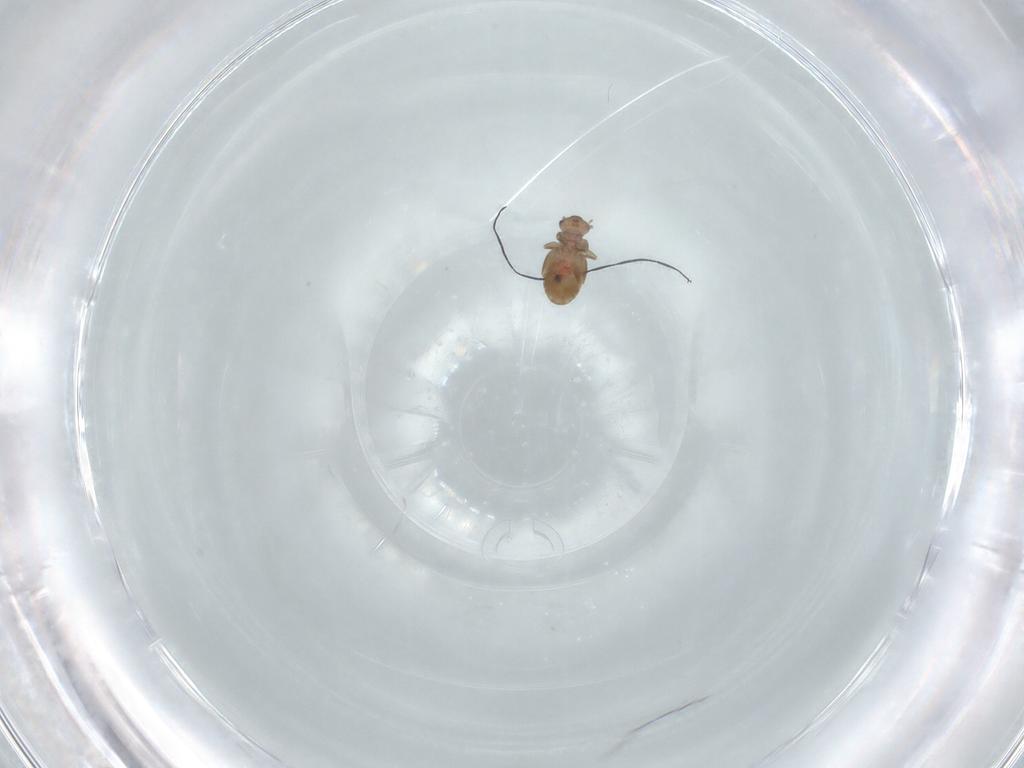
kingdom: Animalia
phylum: Arthropoda
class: Insecta
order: Psocodea
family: Liposcelididae
